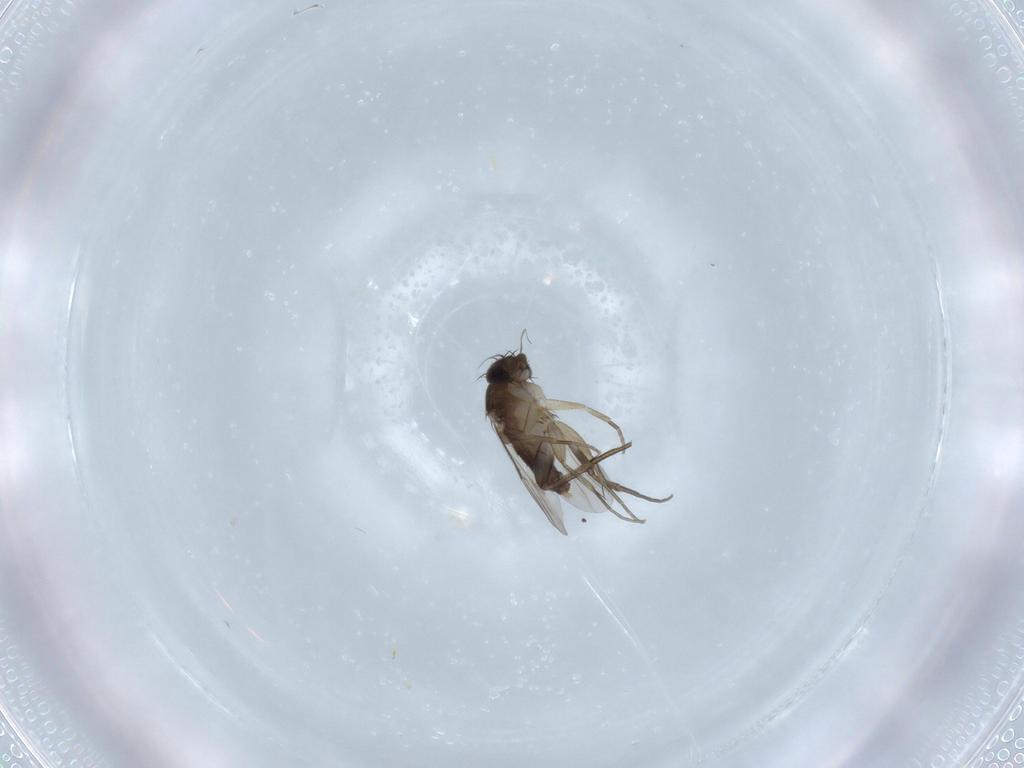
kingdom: Animalia
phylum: Arthropoda
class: Insecta
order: Diptera
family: Phoridae
